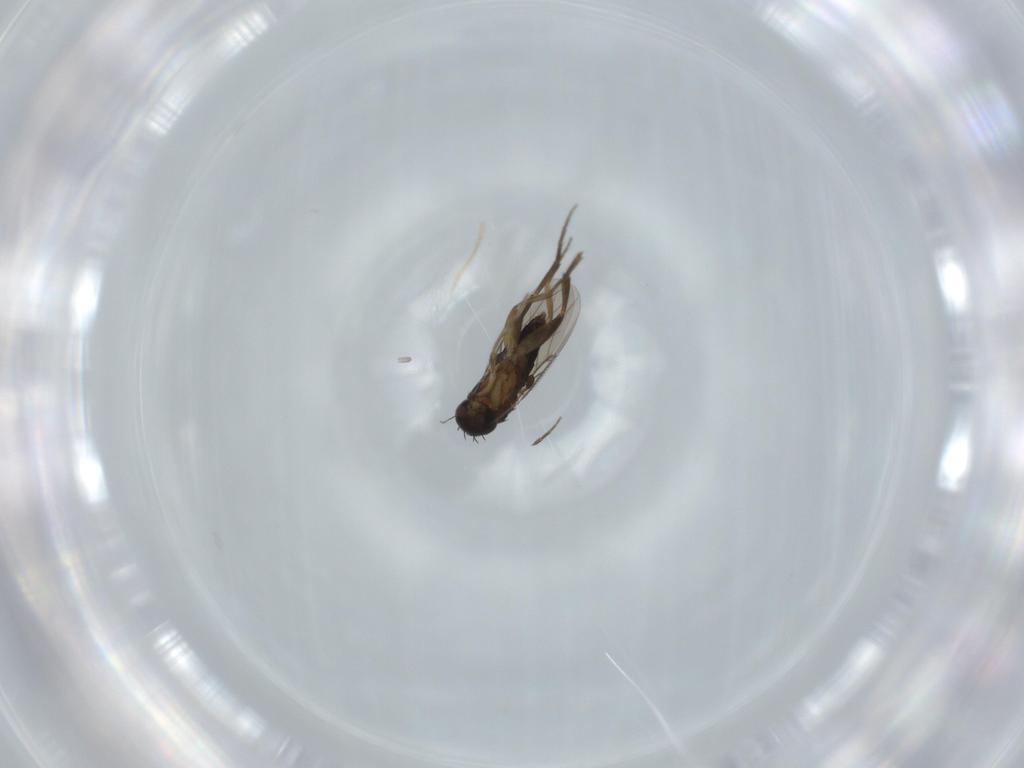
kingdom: Animalia
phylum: Arthropoda
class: Insecta
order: Diptera
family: Phoridae
